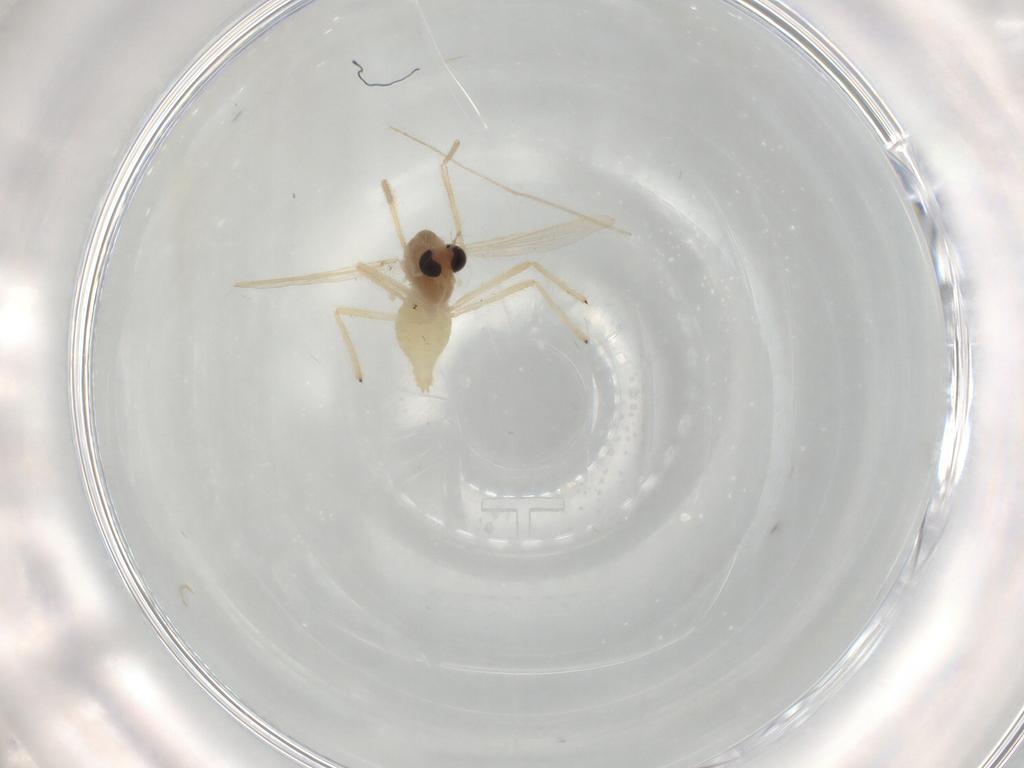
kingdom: Animalia
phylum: Arthropoda
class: Insecta
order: Diptera
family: Chironomidae
